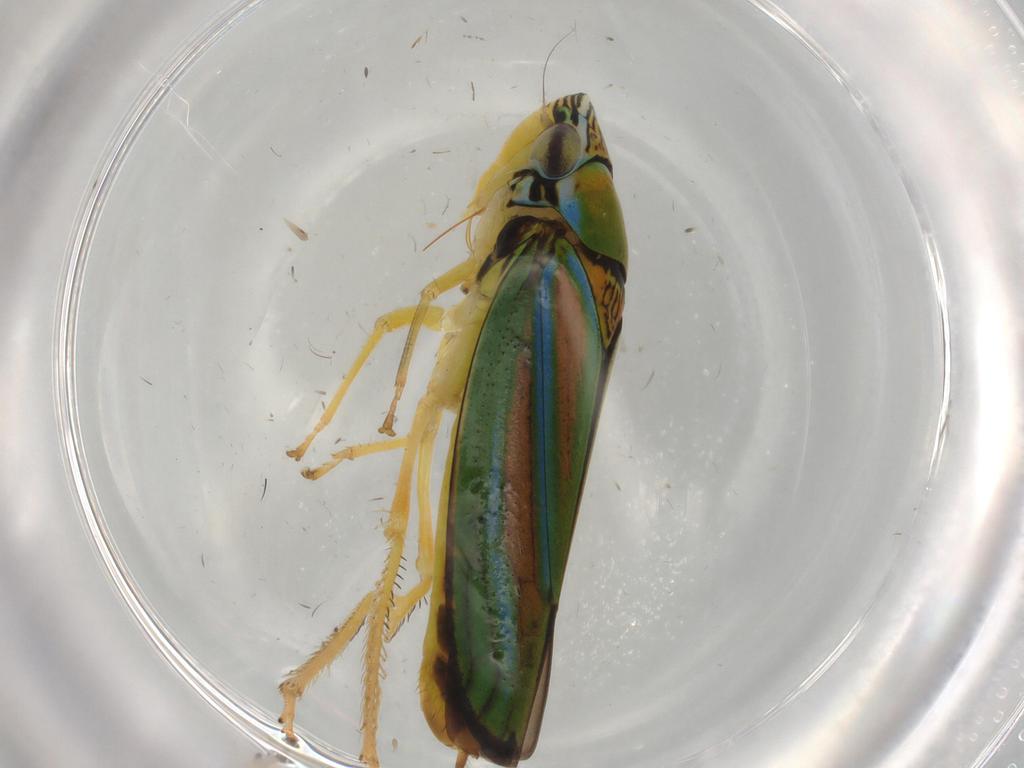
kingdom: Animalia
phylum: Arthropoda
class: Insecta
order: Hemiptera
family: Cicadellidae
